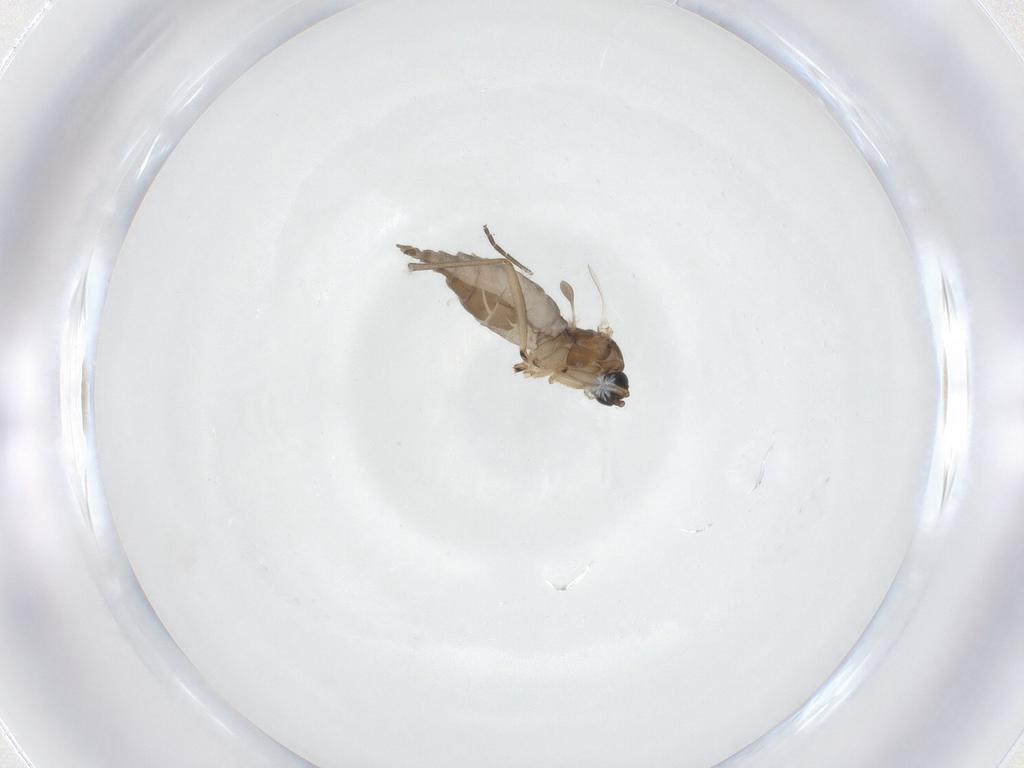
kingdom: Animalia
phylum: Arthropoda
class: Insecta
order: Diptera
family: Sciaridae
